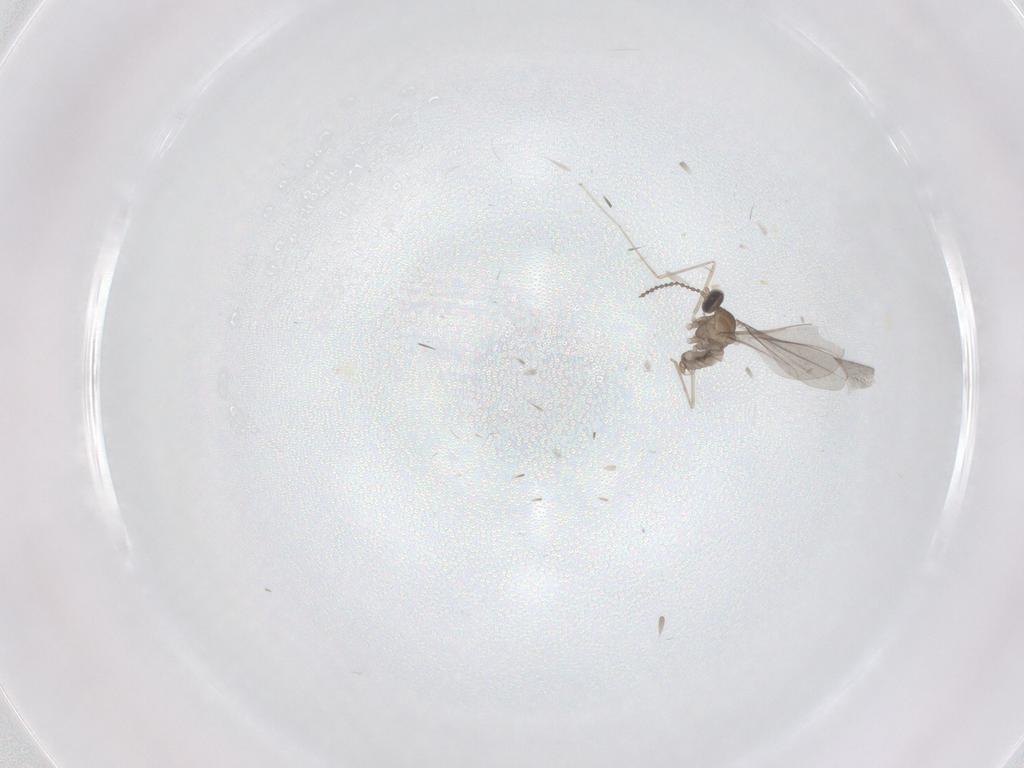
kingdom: Animalia
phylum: Arthropoda
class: Insecta
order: Diptera
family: Cecidomyiidae
